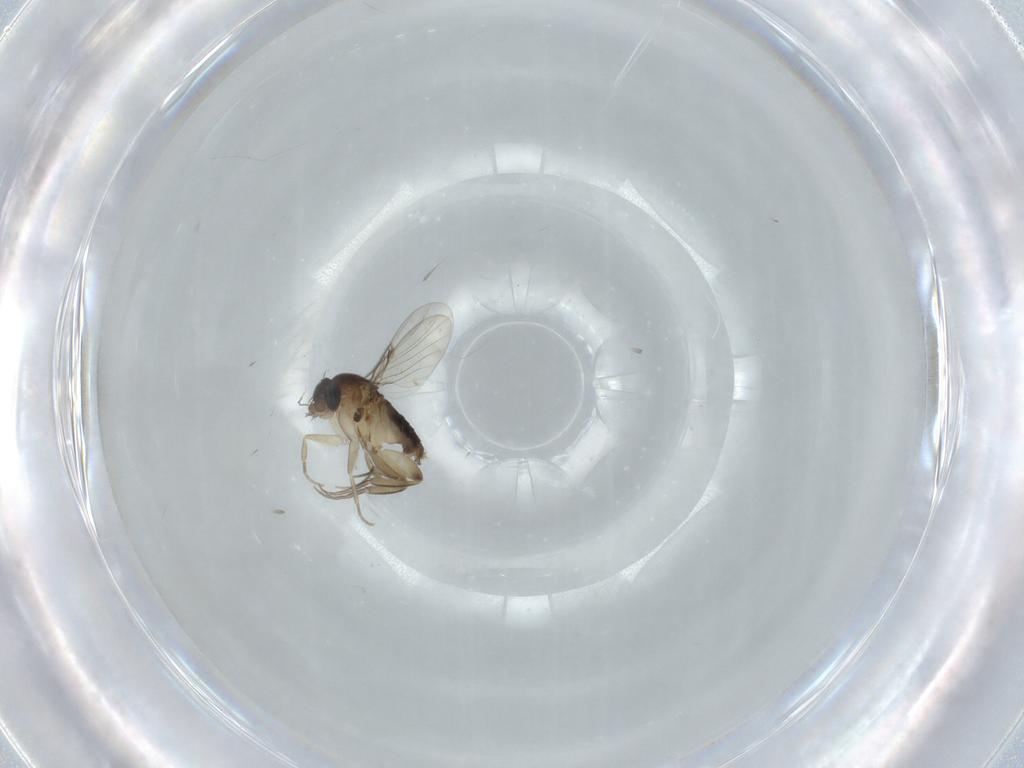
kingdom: Animalia
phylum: Arthropoda
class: Insecta
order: Diptera
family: Phoridae
